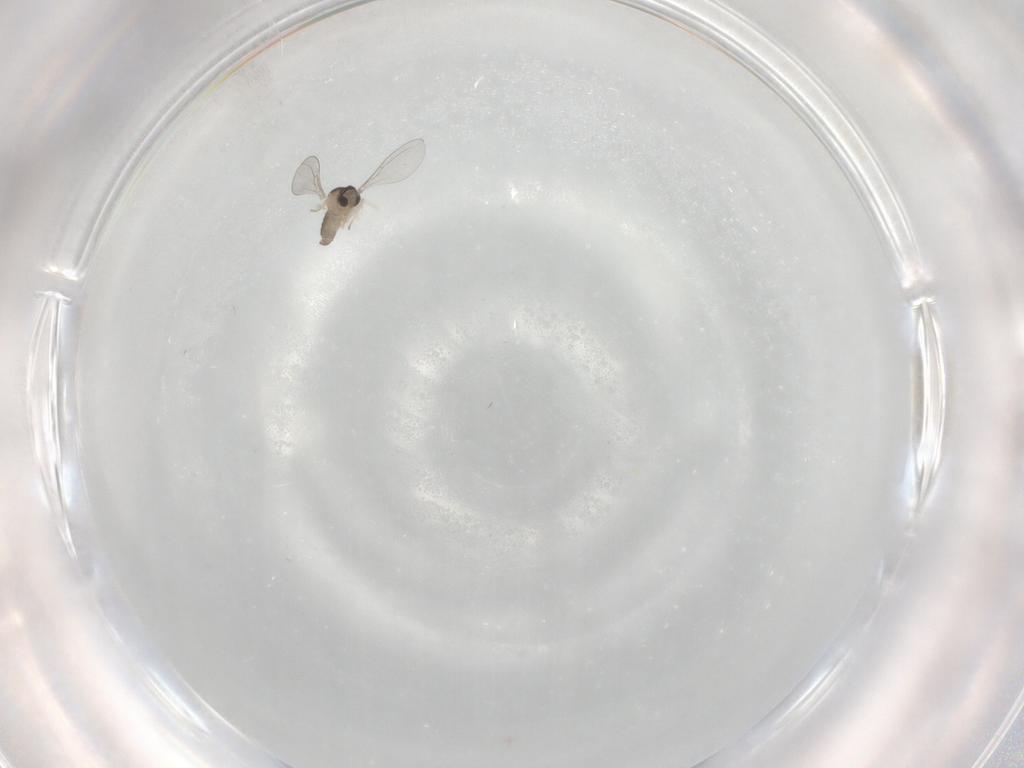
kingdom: Animalia
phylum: Arthropoda
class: Insecta
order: Diptera
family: Cecidomyiidae
